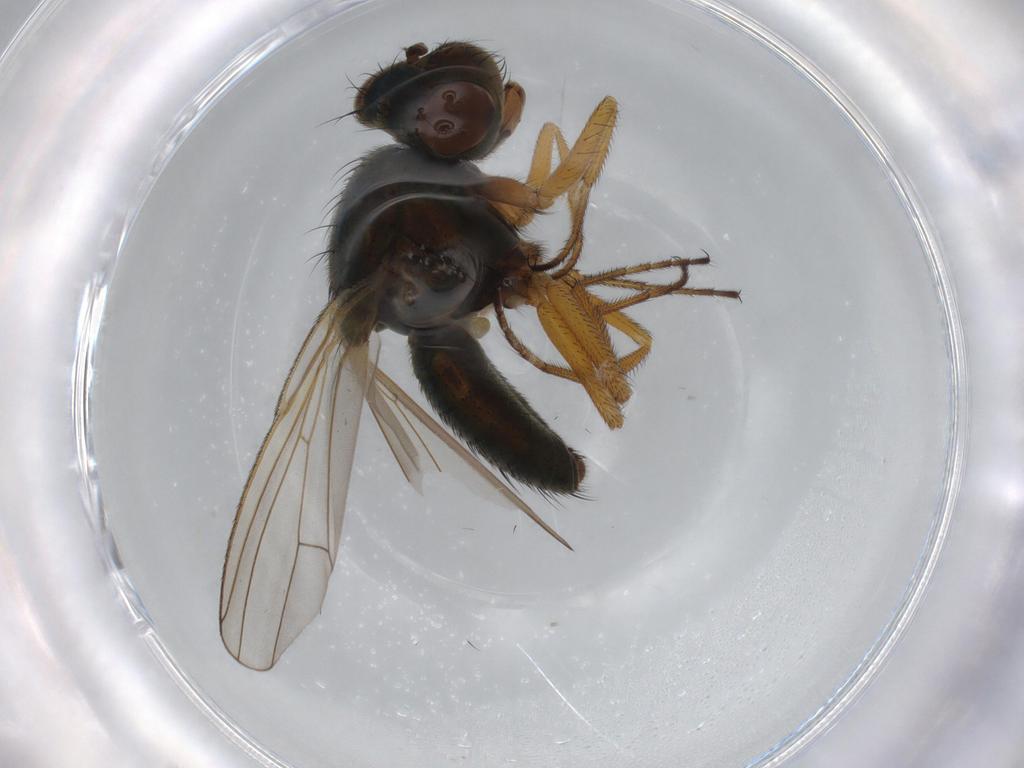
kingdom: Animalia
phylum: Arthropoda
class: Insecta
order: Diptera
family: Ephydridae
